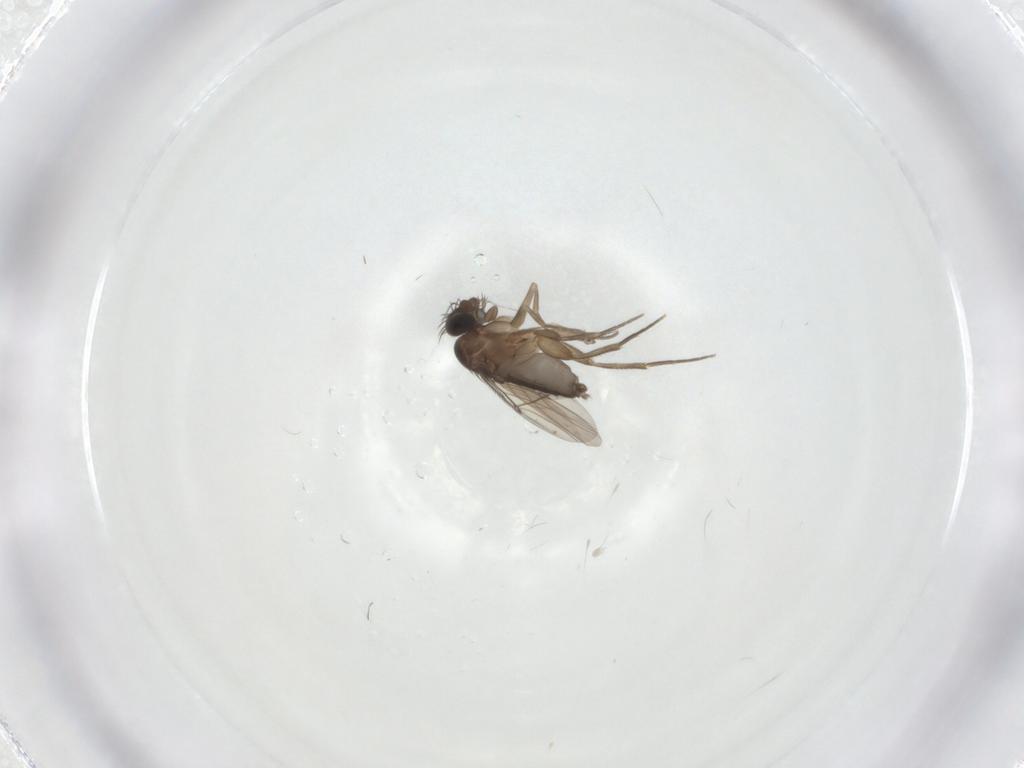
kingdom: Animalia
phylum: Arthropoda
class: Insecta
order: Diptera
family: Cecidomyiidae
